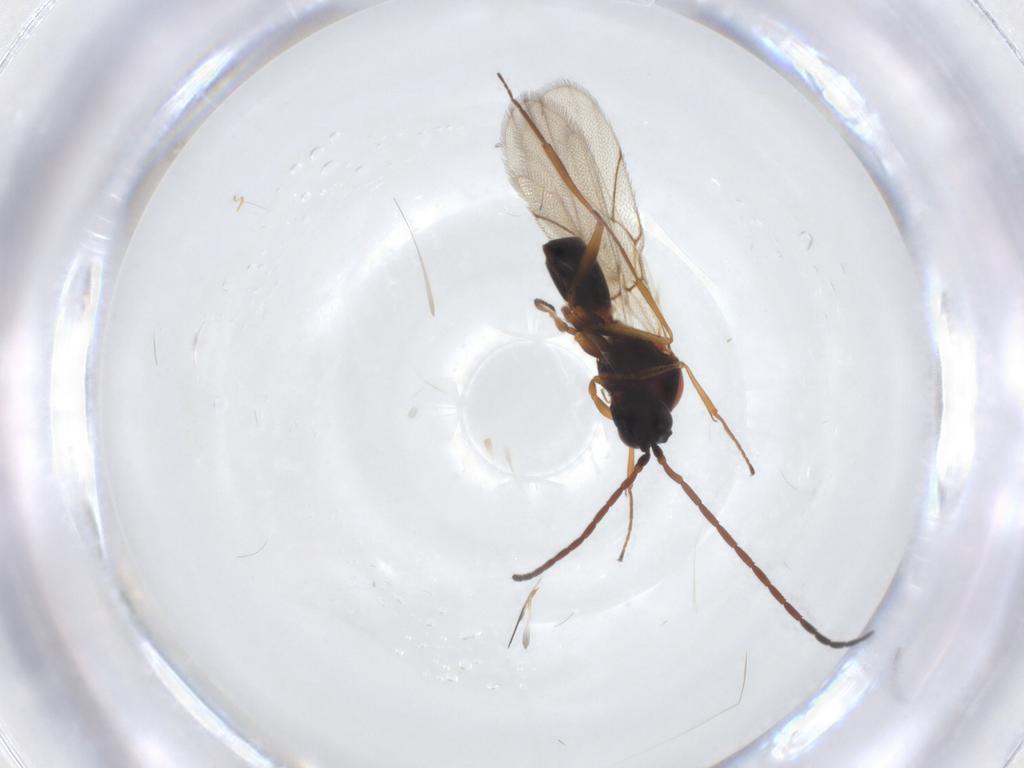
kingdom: Animalia
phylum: Arthropoda
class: Insecta
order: Hymenoptera
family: Figitidae
